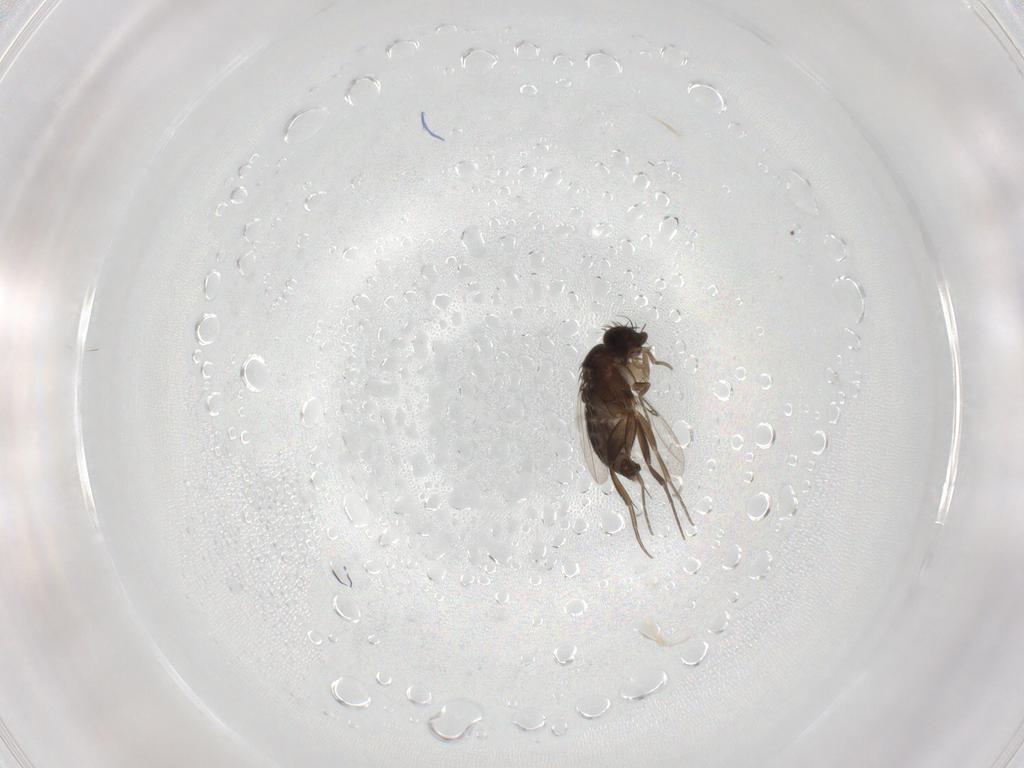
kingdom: Animalia
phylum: Arthropoda
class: Insecta
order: Diptera
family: Phoridae
